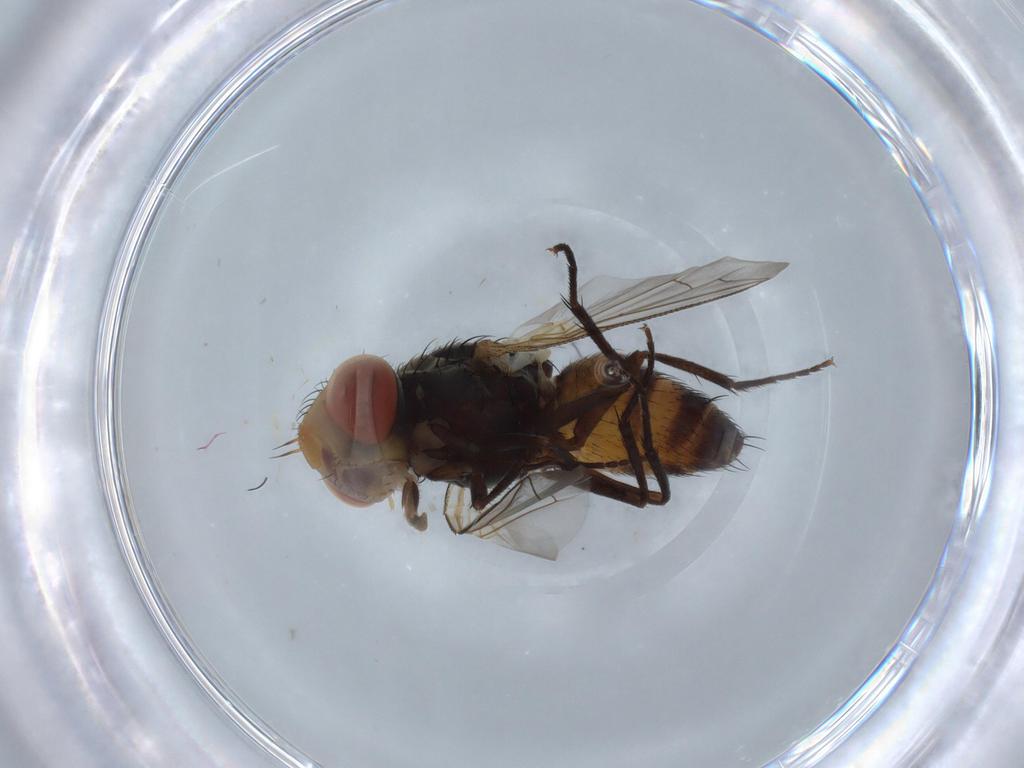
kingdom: Animalia
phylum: Arthropoda
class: Insecta
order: Diptera
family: Sarcophagidae
